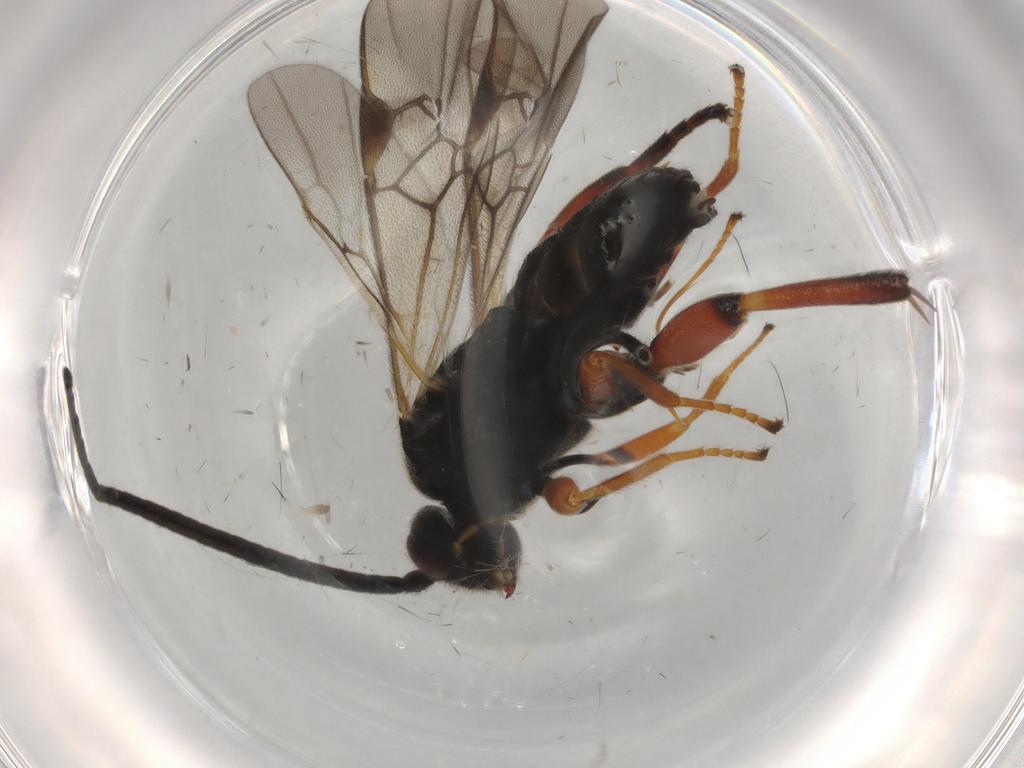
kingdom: Animalia
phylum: Arthropoda
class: Insecta
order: Hymenoptera
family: Braconidae
